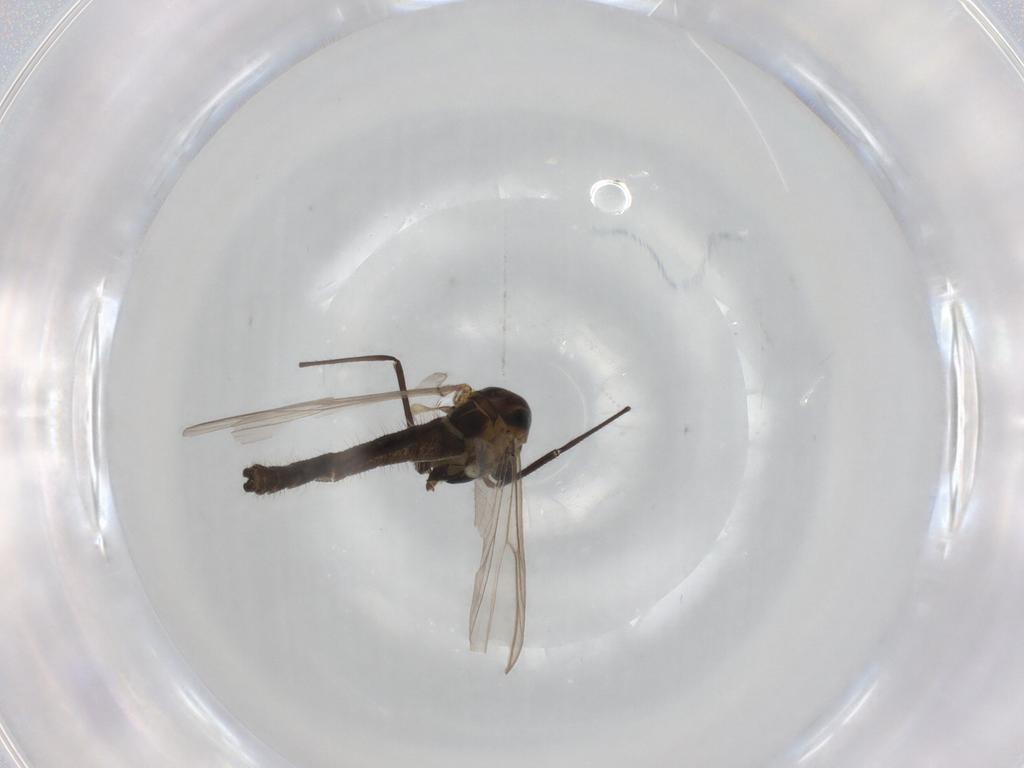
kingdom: Animalia
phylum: Arthropoda
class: Insecta
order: Diptera
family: Chironomidae
